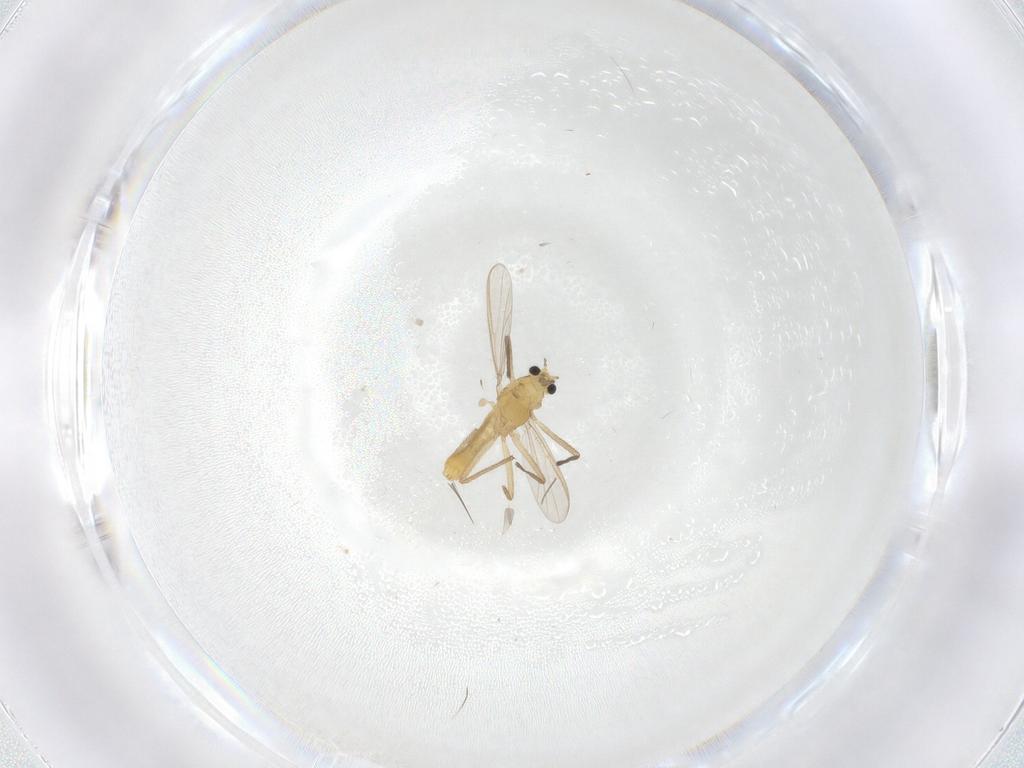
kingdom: Animalia
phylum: Arthropoda
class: Insecta
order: Diptera
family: Chironomidae
